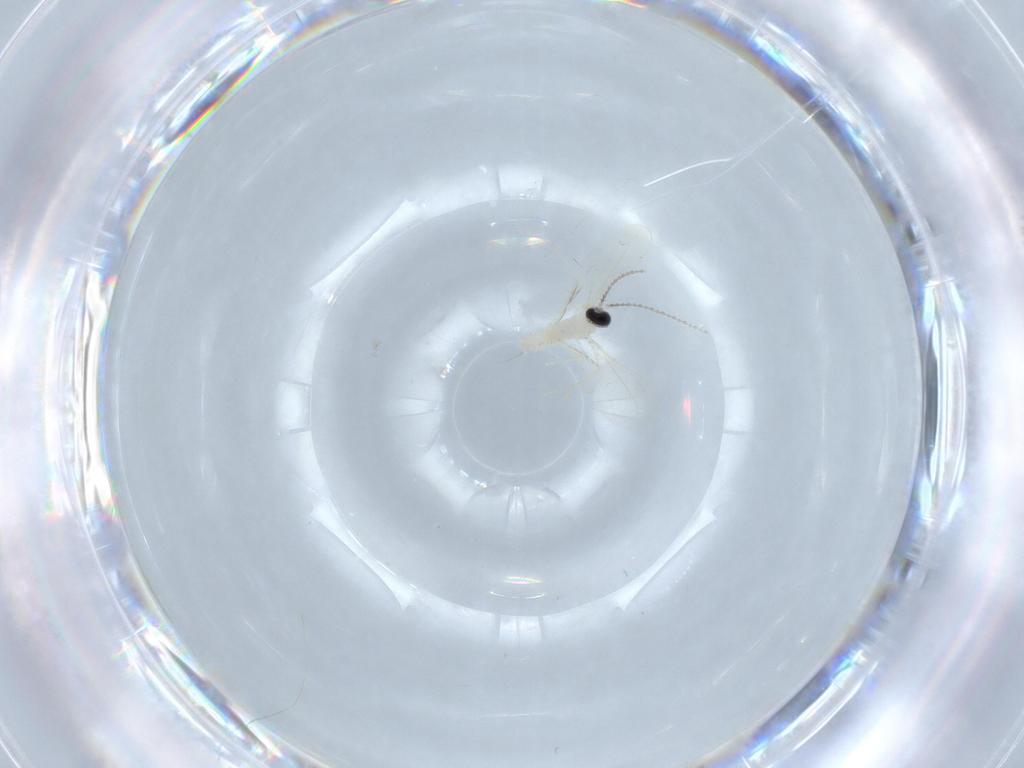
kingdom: Animalia
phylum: Arthropoda
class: Insecta
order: Diptera
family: Cecidomyiidae
